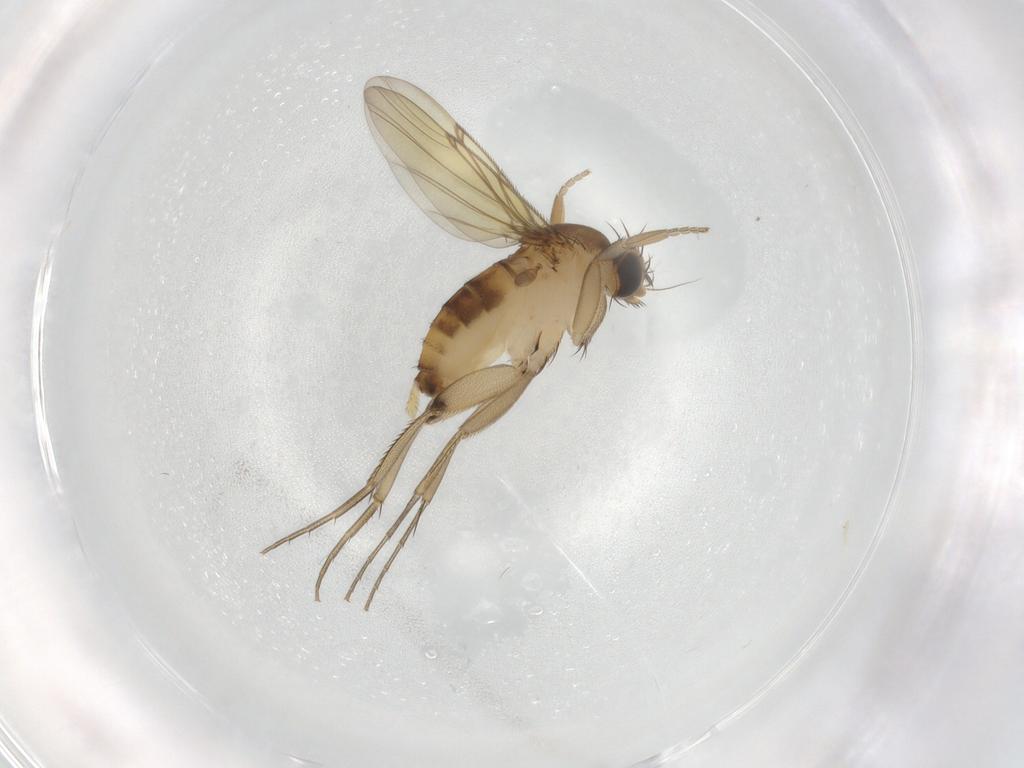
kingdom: Animalia
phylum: Arthropoda
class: Insecta
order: Diptera
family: Phoridae
